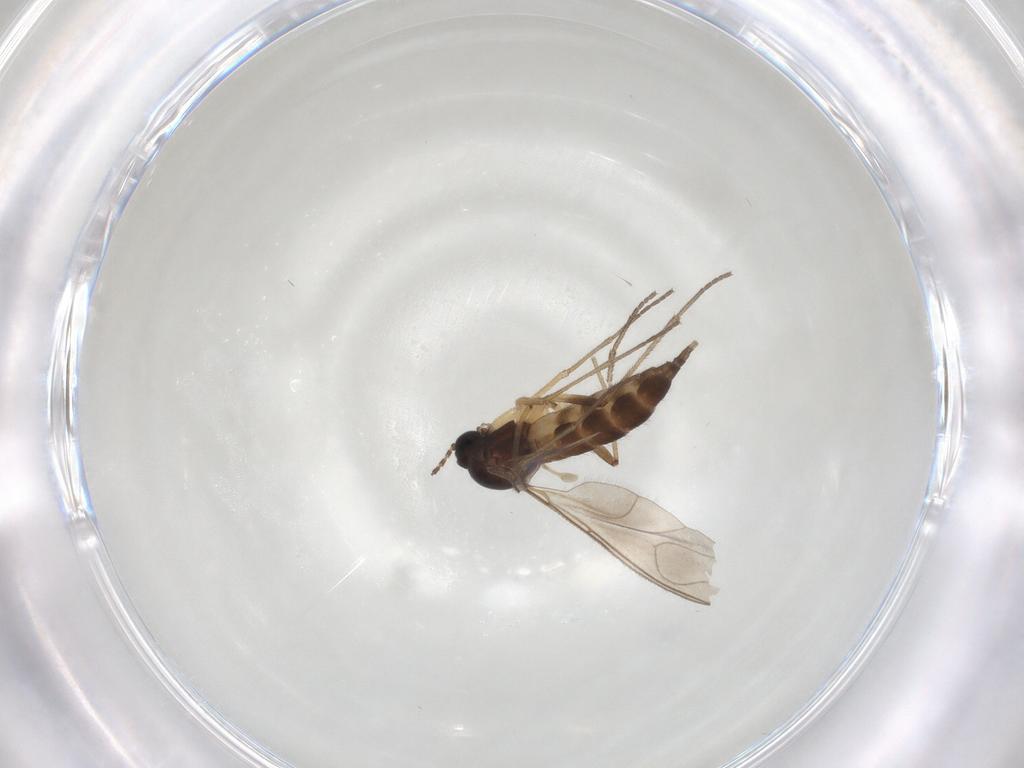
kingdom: Animalia
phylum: Arthropoda
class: Insecta
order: Diptera
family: Sciaridae
